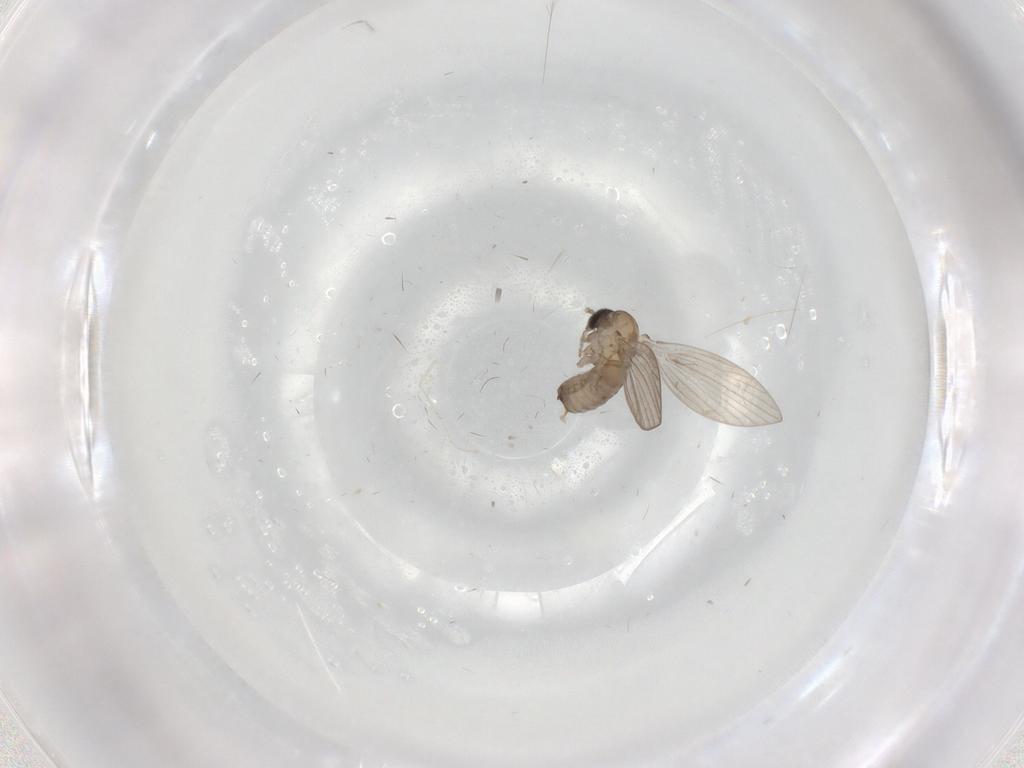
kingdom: Animalia
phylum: Arthropoda
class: Insecta
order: Diptera
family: Psychodidae
